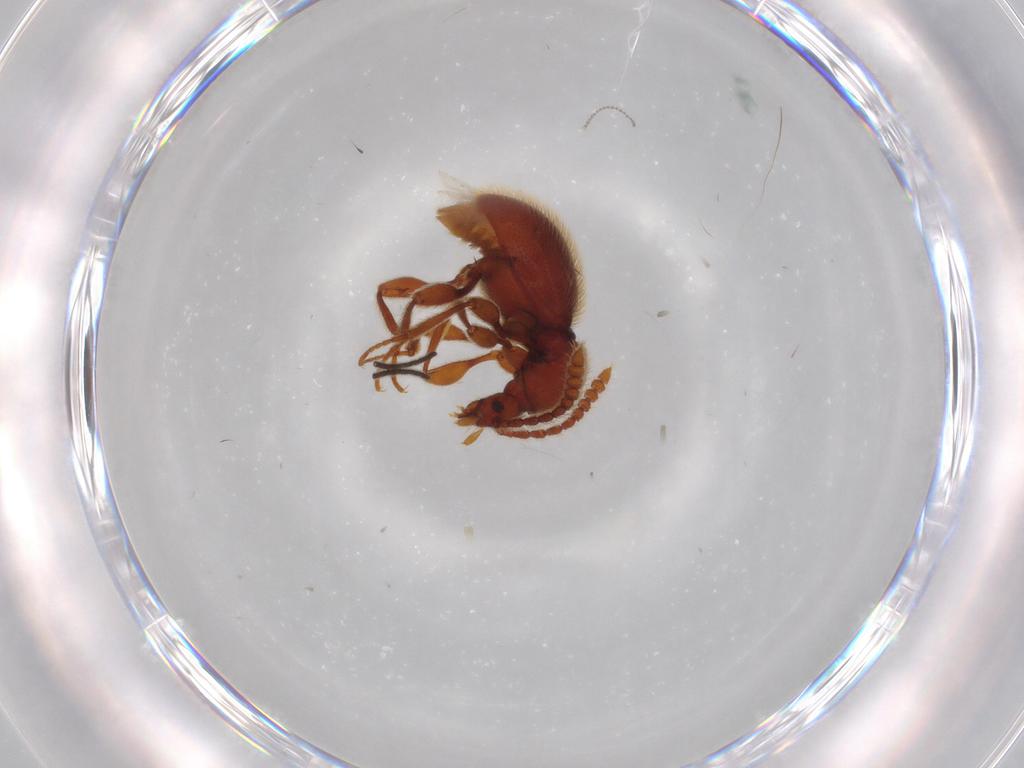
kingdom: Animalia
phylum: Arthropoda
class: Insecta
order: Coleoptera
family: Staphylinidae
